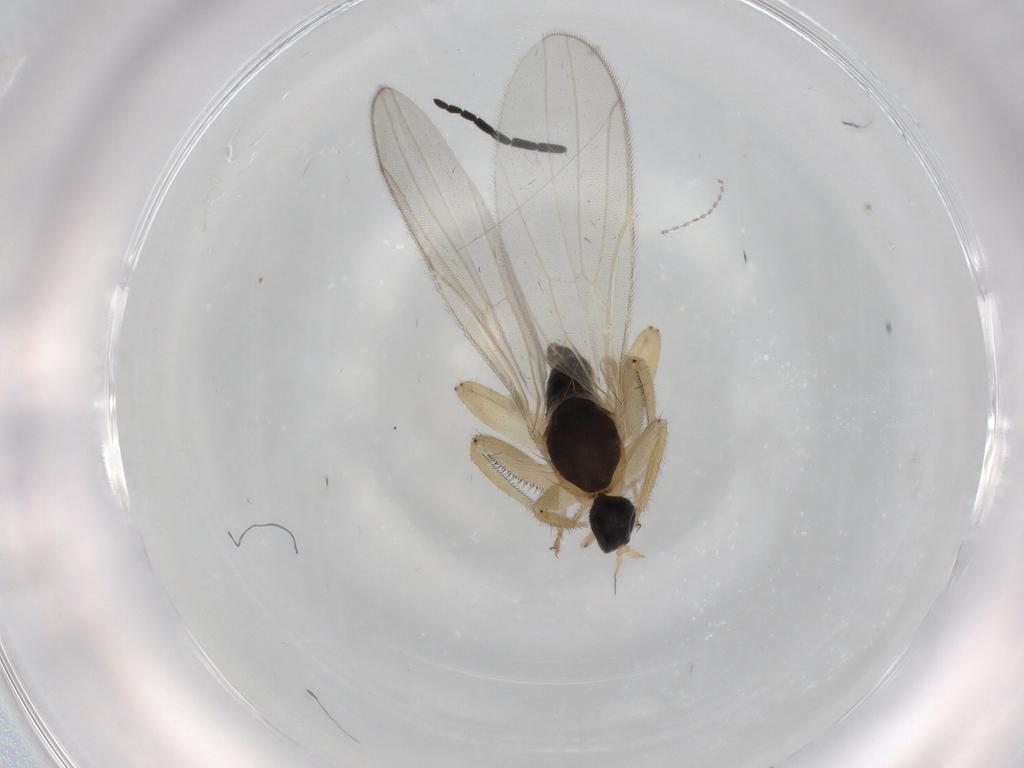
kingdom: Animalia
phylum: Arthropoda
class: Insecta
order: Diptera
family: Hybotidae
